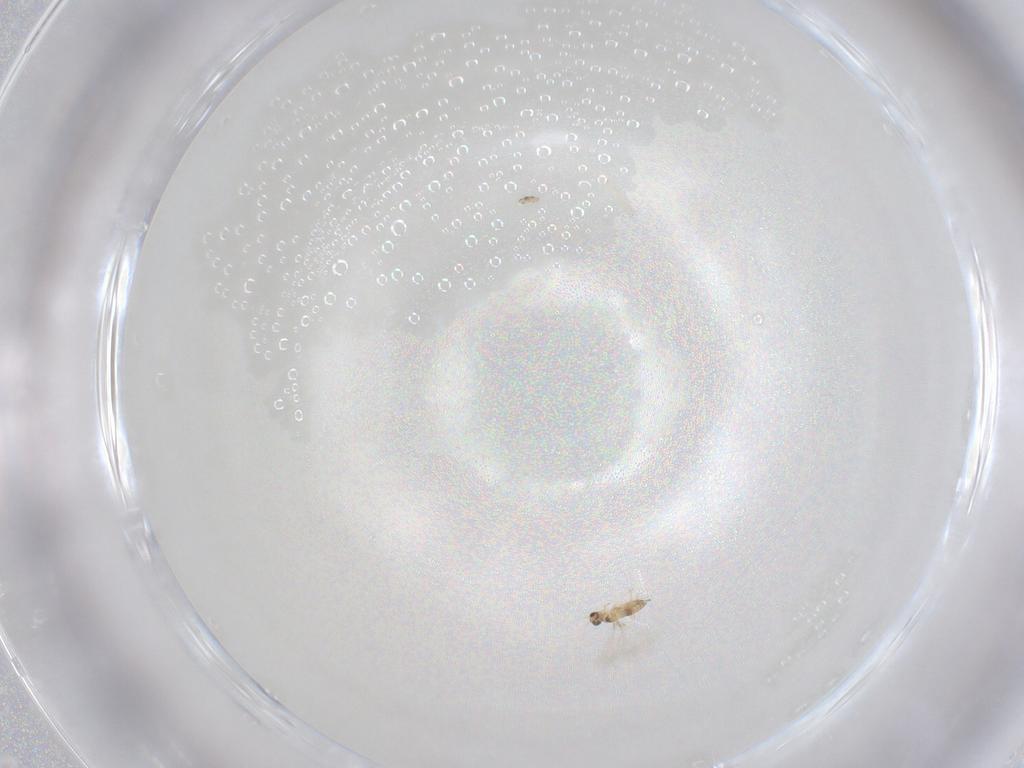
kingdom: Animalia
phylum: Arthropoda
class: Insecta
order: Hymenoptera
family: Mymaridae
